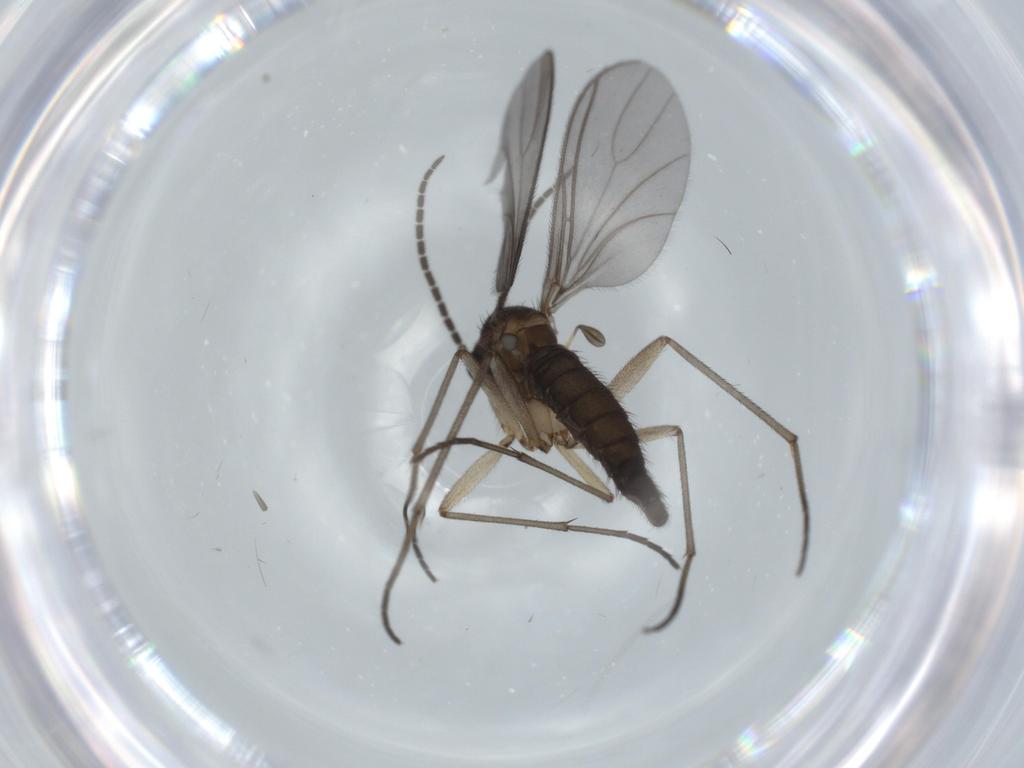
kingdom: Animalia
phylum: Arthropoda
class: Insecta
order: Diptera
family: Sciaridae
